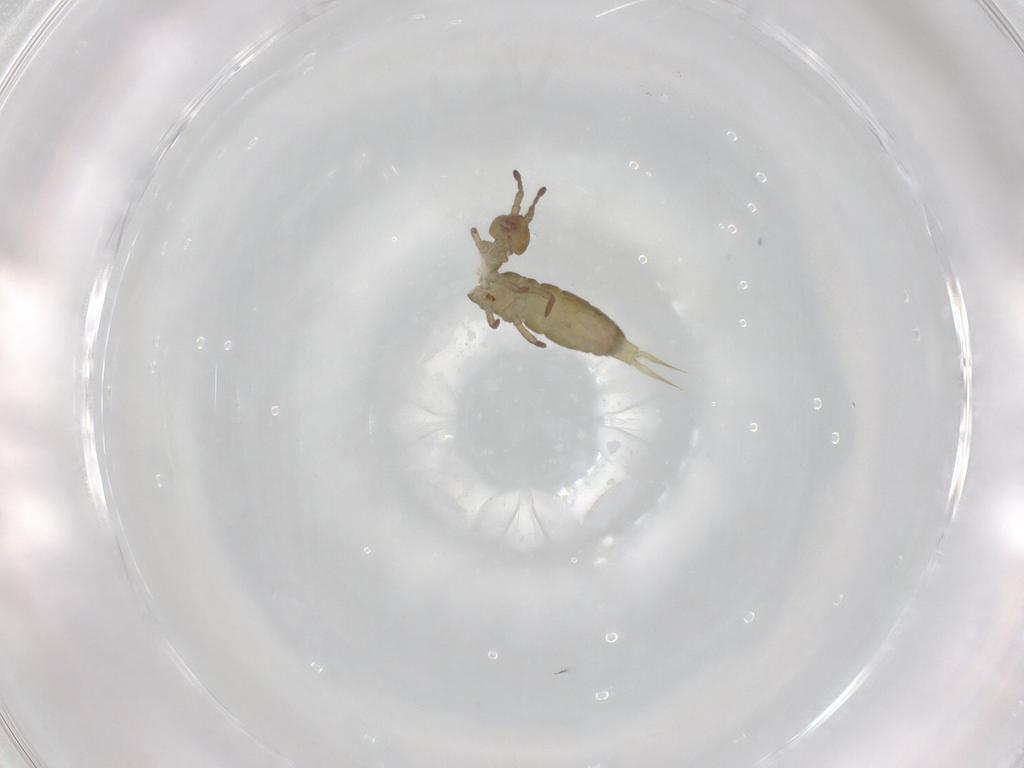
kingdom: Animalia
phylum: Arthropoda
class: Collembola
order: Entomobryomorpha
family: Isotomidae
